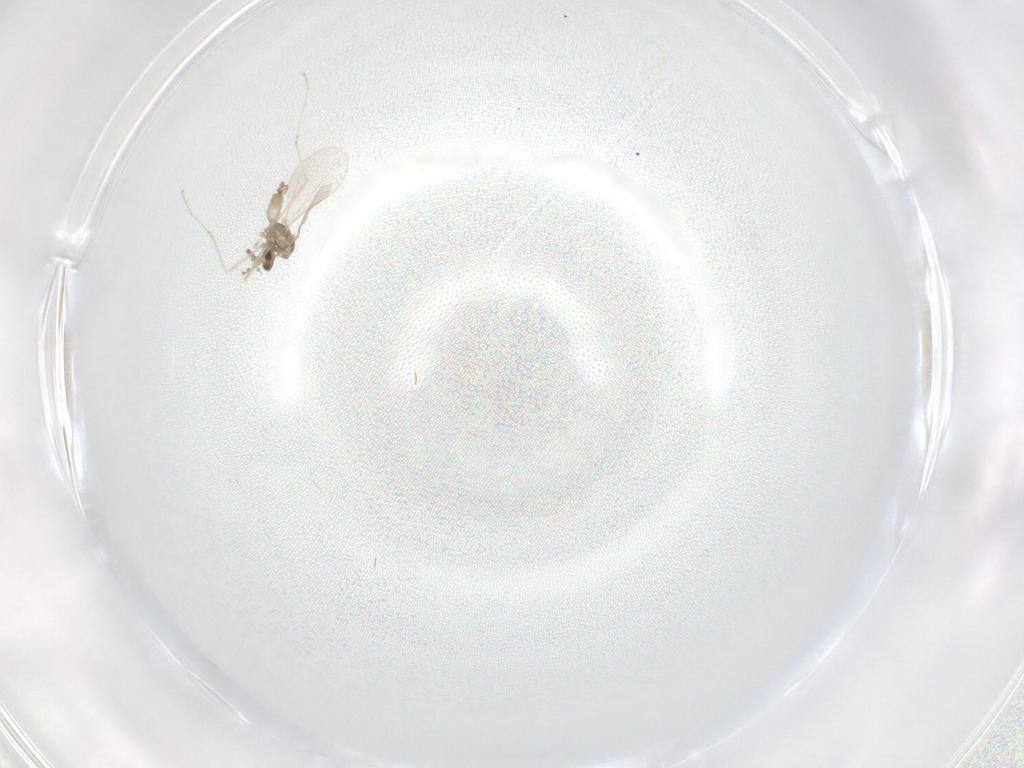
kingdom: Animalia
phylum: Arthropoda
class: Insecta
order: Diptera
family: Cecidomyiidae
